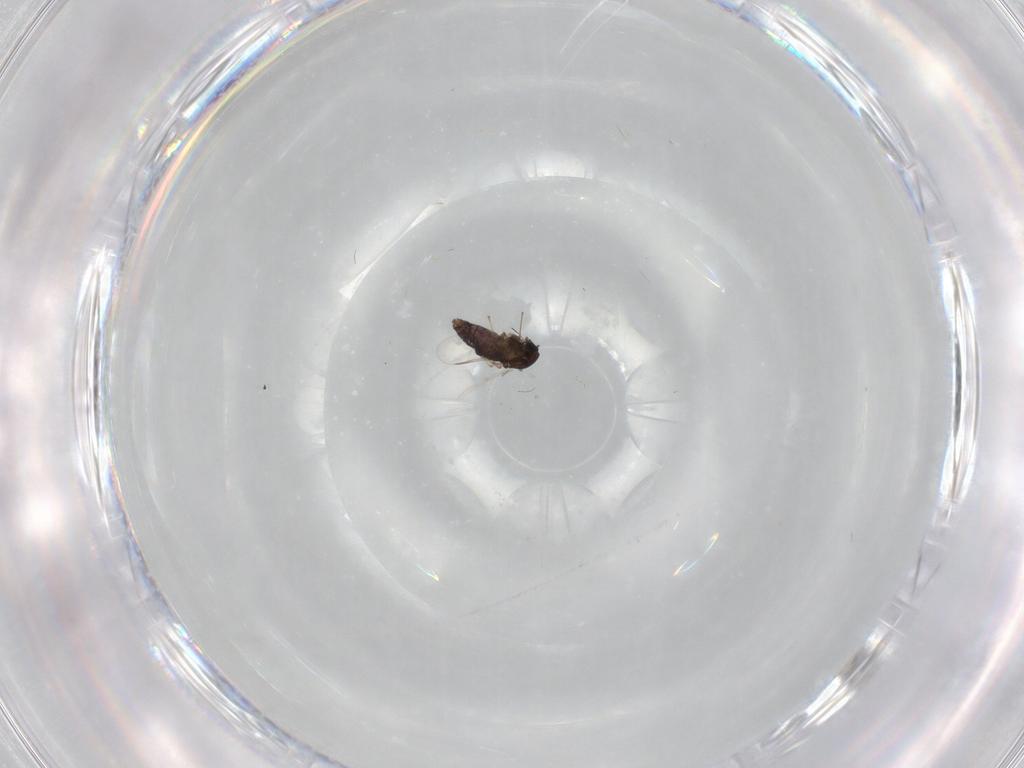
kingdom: Animalia
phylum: Arthropoda
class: Insecta
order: Diptera
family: Chironomidae
